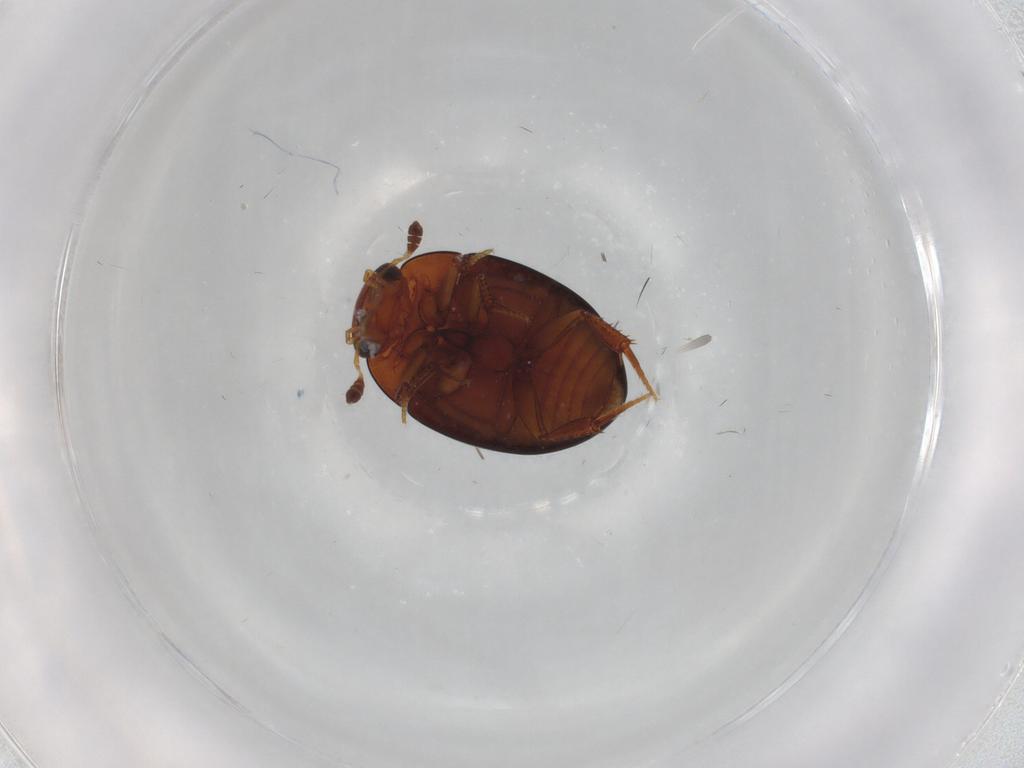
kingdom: Animalia
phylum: Arthropoda
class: Insecta
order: Coleoptera
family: Hydrophilidae
